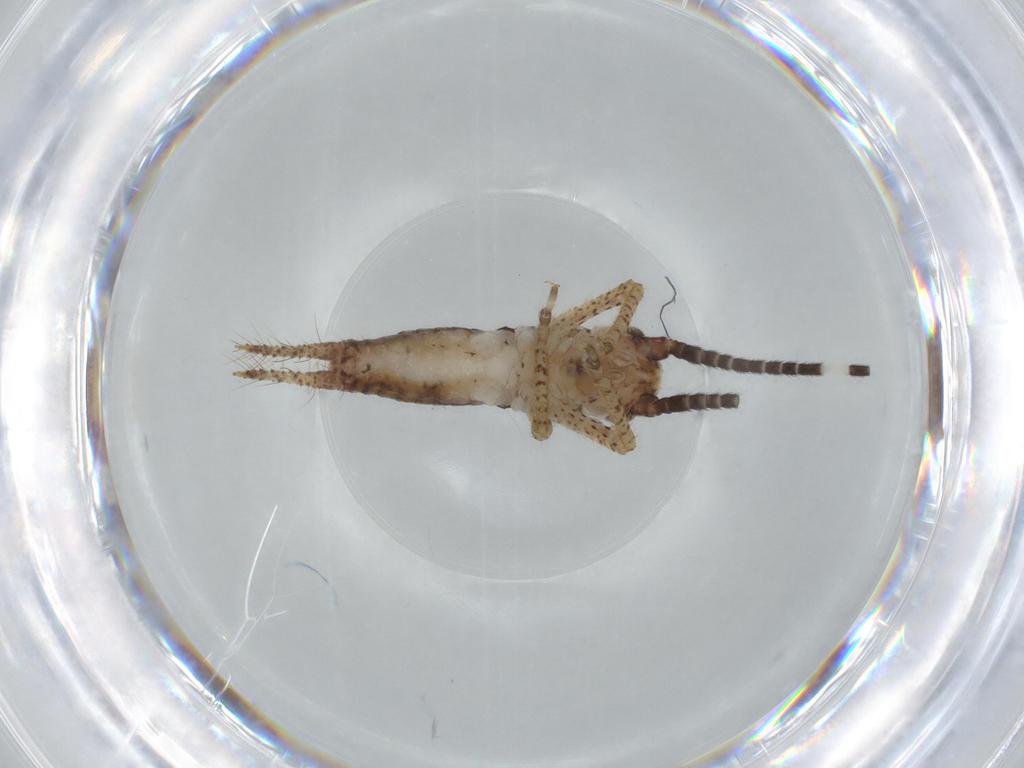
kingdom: Animalia
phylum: Arthropoda
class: Insecta
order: Orthoptera
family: Gryllidae
